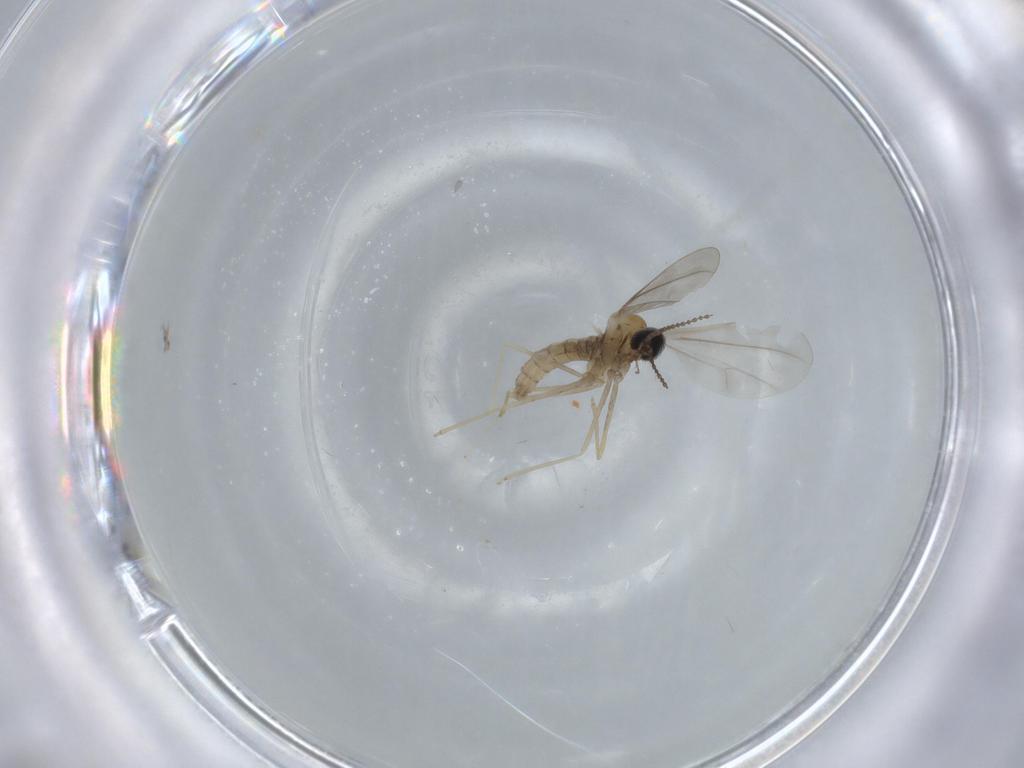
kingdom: Animalia
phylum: Arthropoda
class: Insecta
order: Diptera
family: Cecidomyiidae
